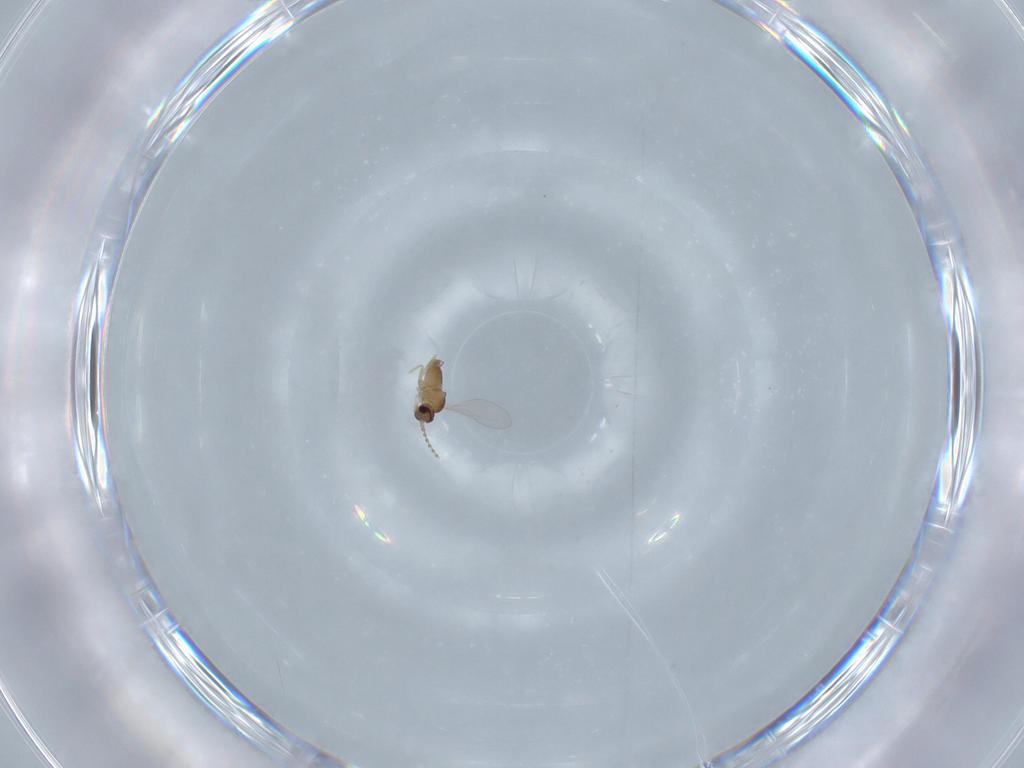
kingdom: Animalia
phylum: Arthropoda
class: Insecta
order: Diptera
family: Cecidomyiidae
